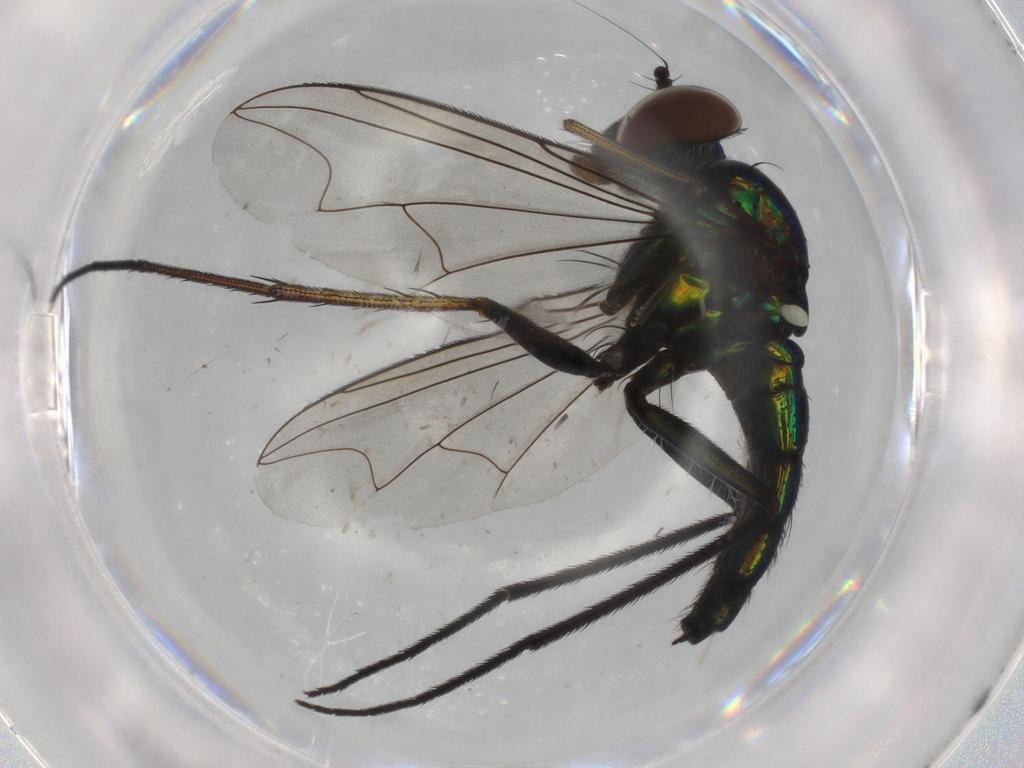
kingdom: Animalia
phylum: Arthropoda
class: Insecta
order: Diptera
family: Dolichopodidae
